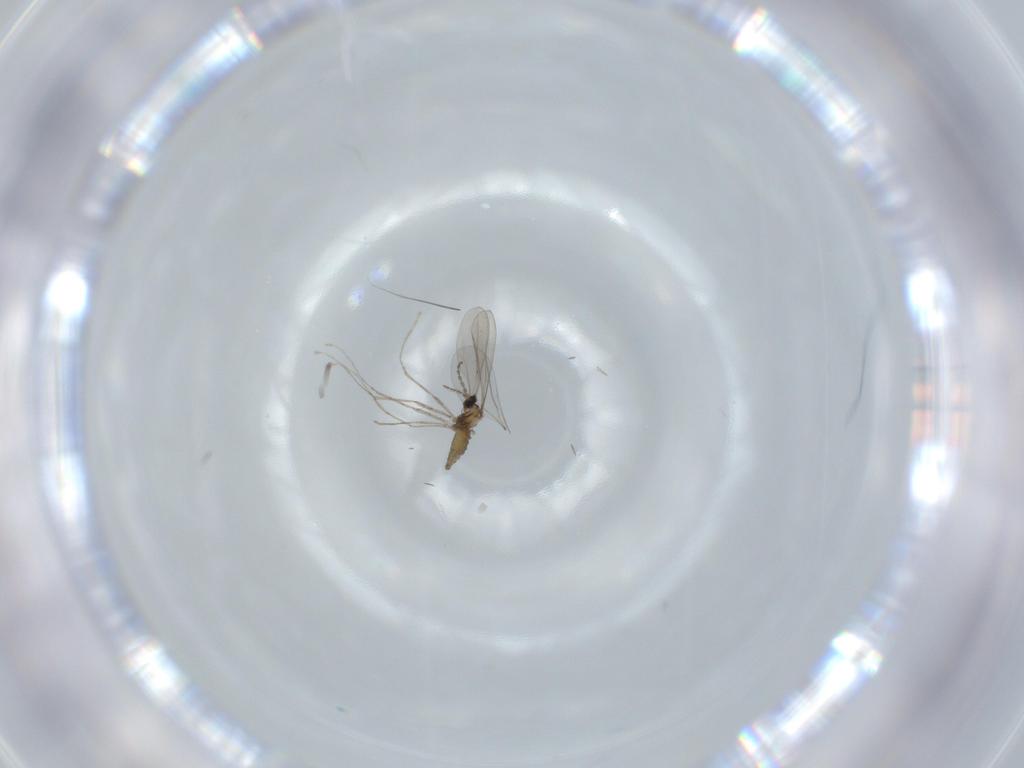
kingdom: Animalia
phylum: Arthropoda
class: Insecta
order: Diptera
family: Cecidomyiidae
